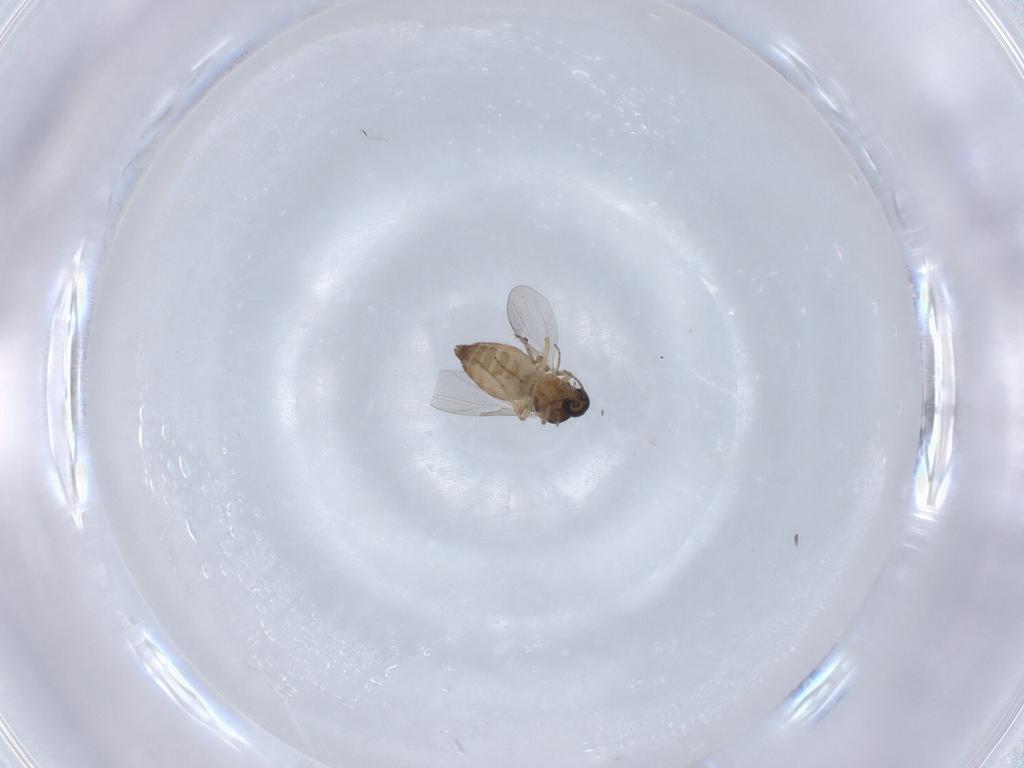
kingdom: Animalia
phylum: Arthropoda
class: Insecta
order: Diptera
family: Ceratopogonidae
